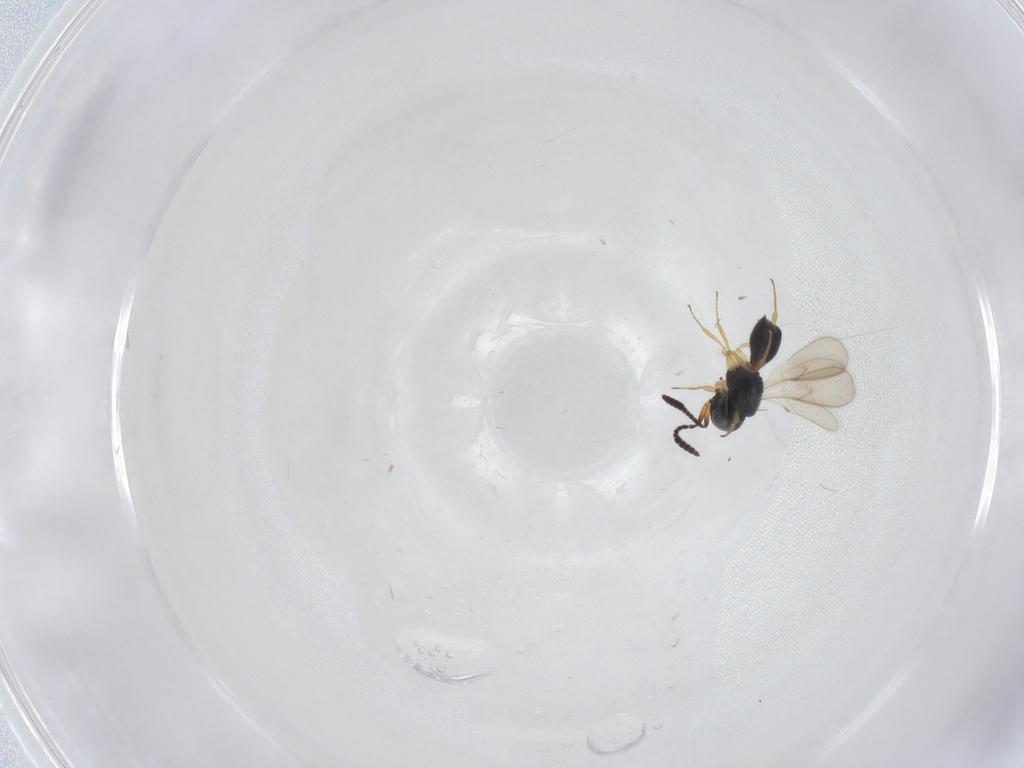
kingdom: Animalia
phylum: Arthropoda
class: Insecta
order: Hymenoptera
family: Scelionidae
